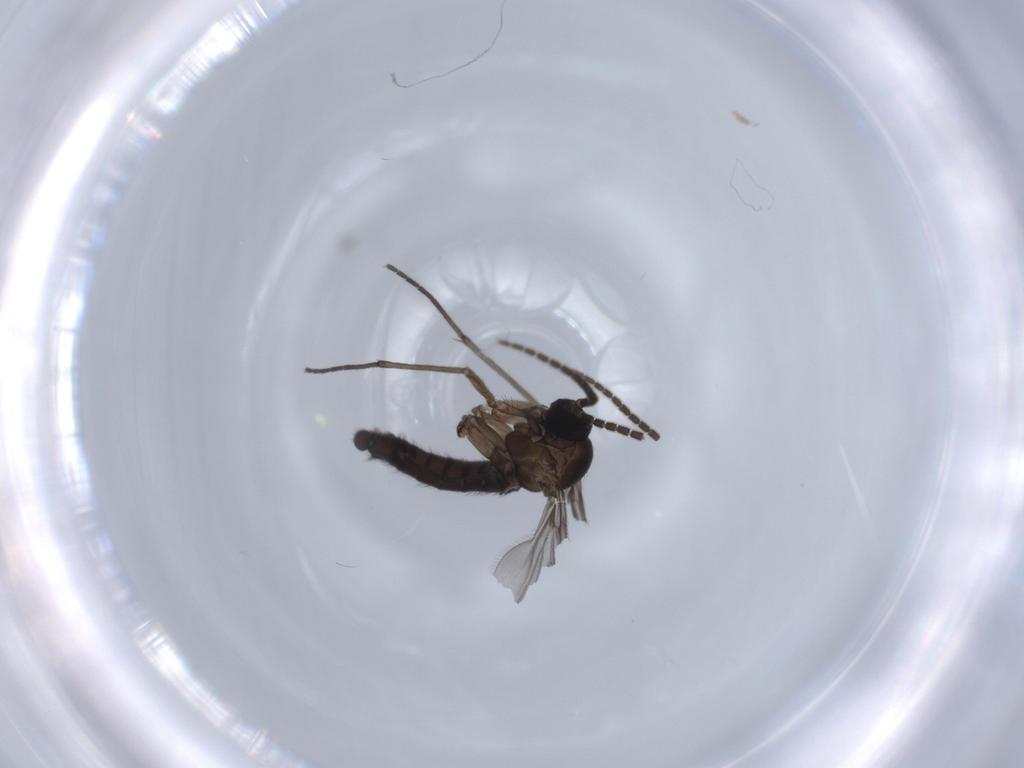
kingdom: Animalia
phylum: Arthropoda
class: Insecta
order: Diptera
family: Sciaridae
